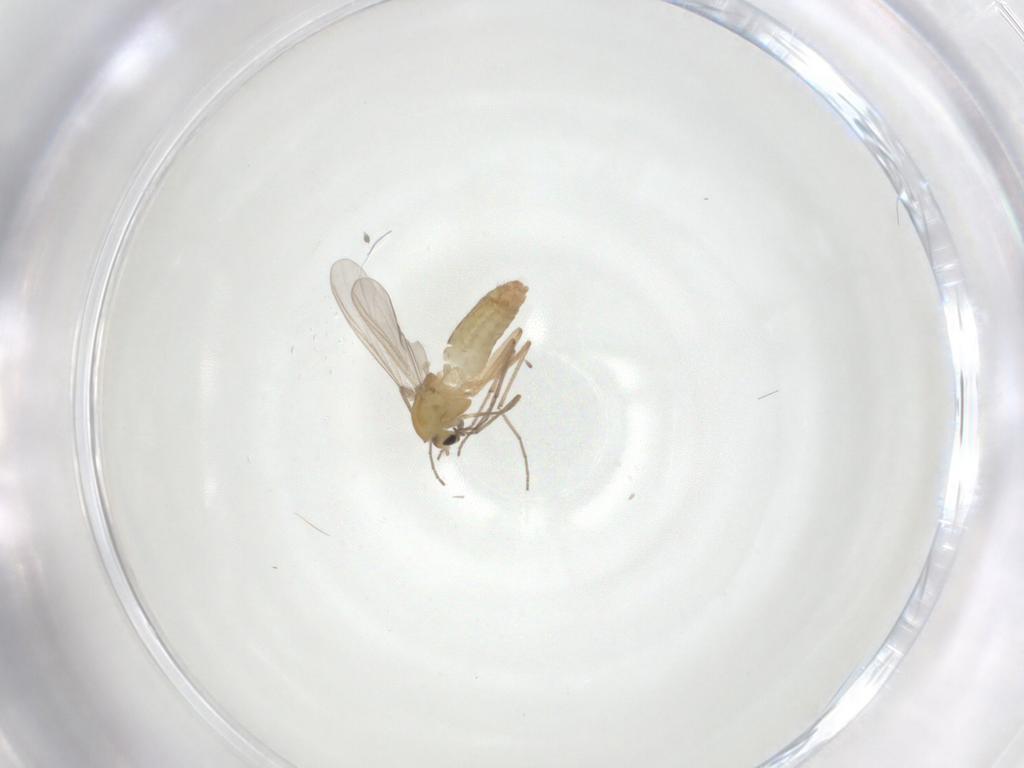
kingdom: Animalia
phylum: Arthropoda
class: Insecta
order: Diptera
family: Chironomidae
